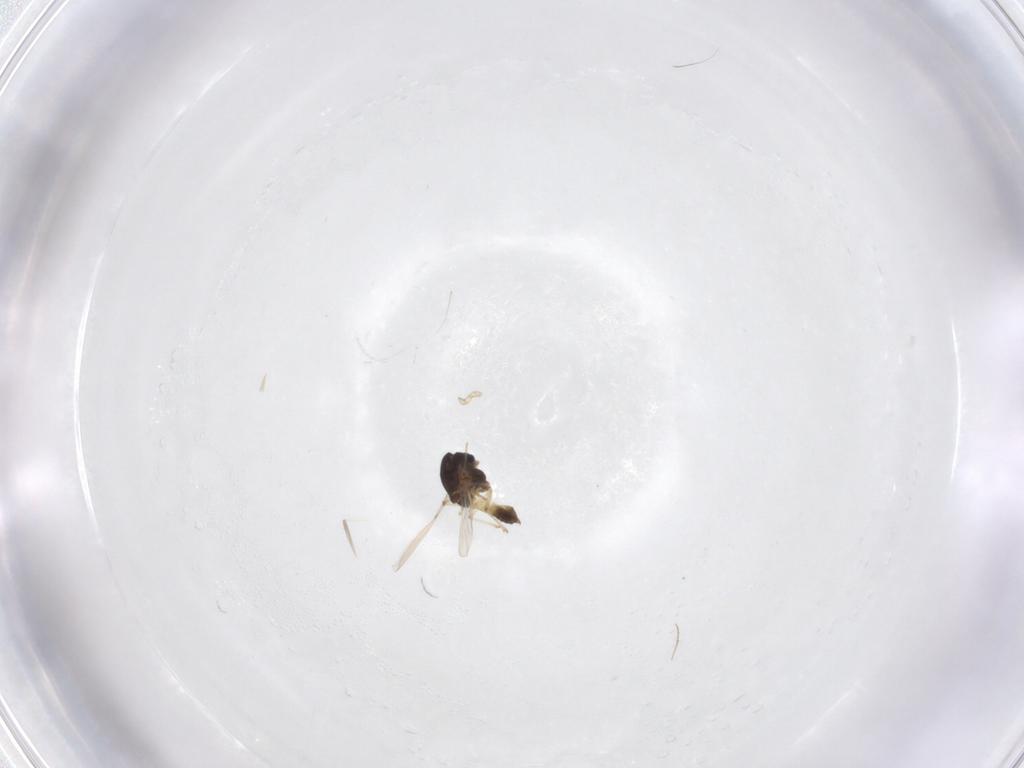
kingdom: Animalia
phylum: Arthropoda
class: Insecta
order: Diptera
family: Chironomidae
